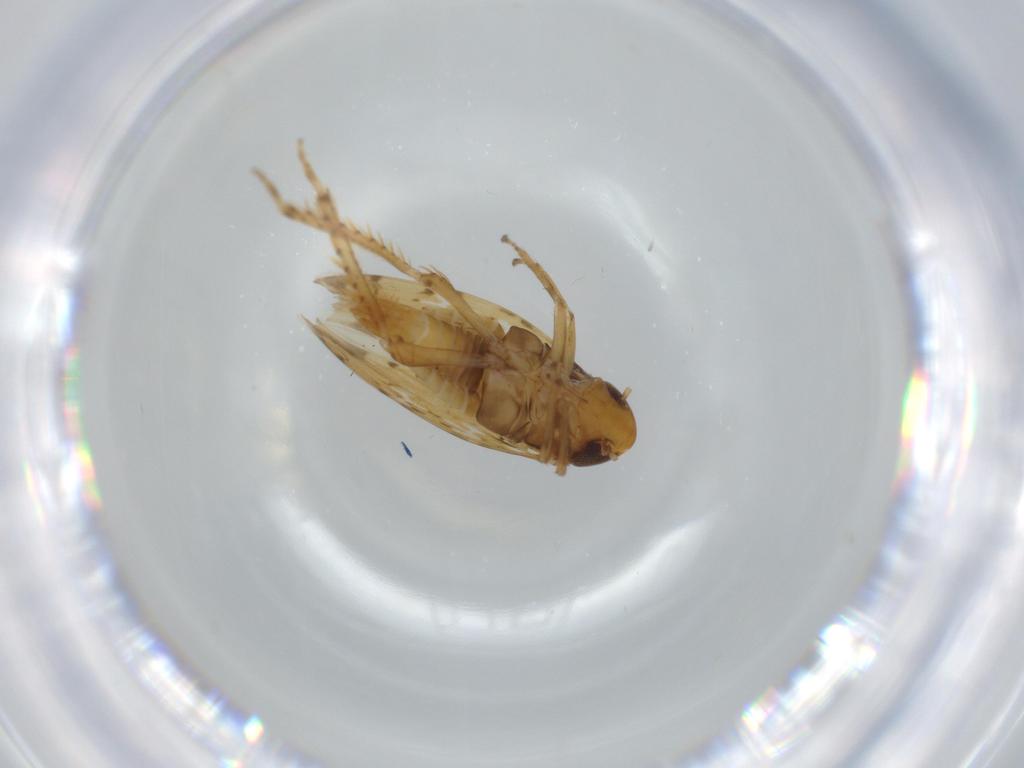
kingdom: Animalia
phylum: Arthropoda
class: Insecta
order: Hemiptera
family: Cicadellidae
